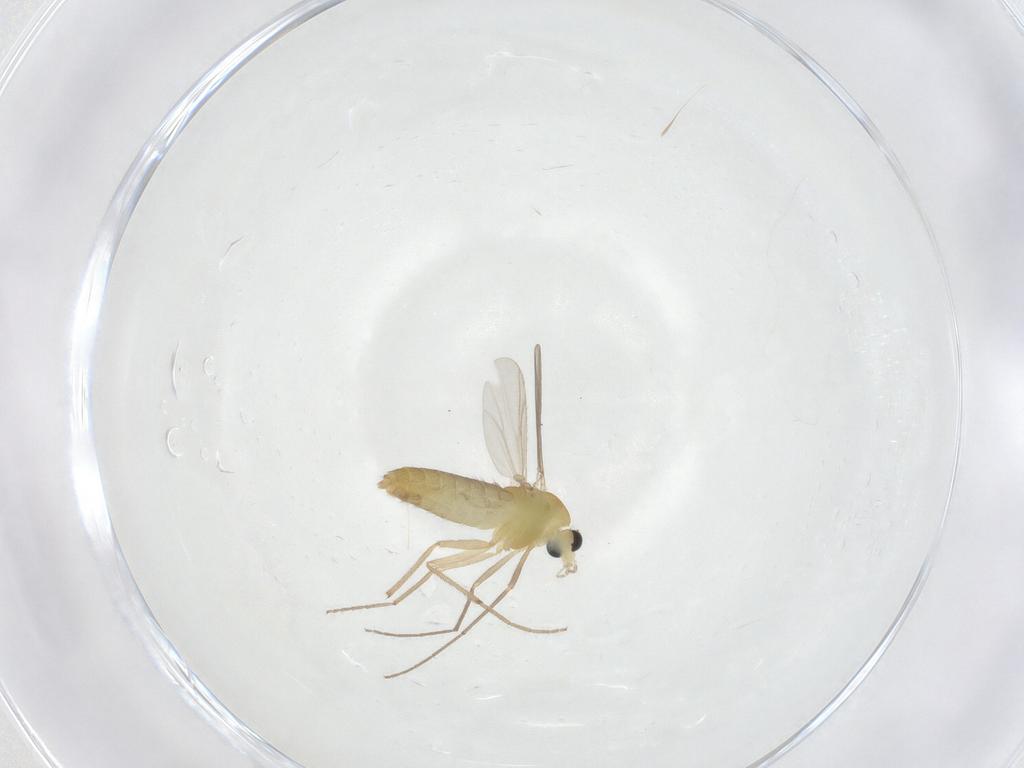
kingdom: Animalia
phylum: Arthropoda
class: Insecta
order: Diptera
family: Chironomidae
